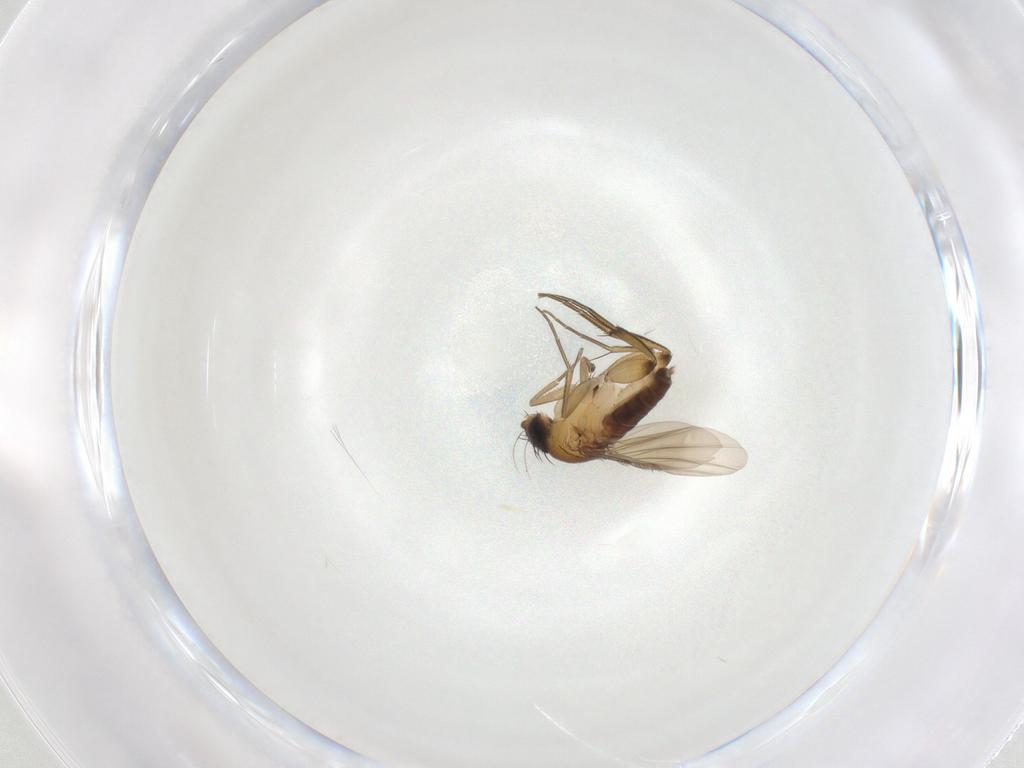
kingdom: Animalia
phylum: Arthropoda
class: Insecta
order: Diptera
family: Phoridae
